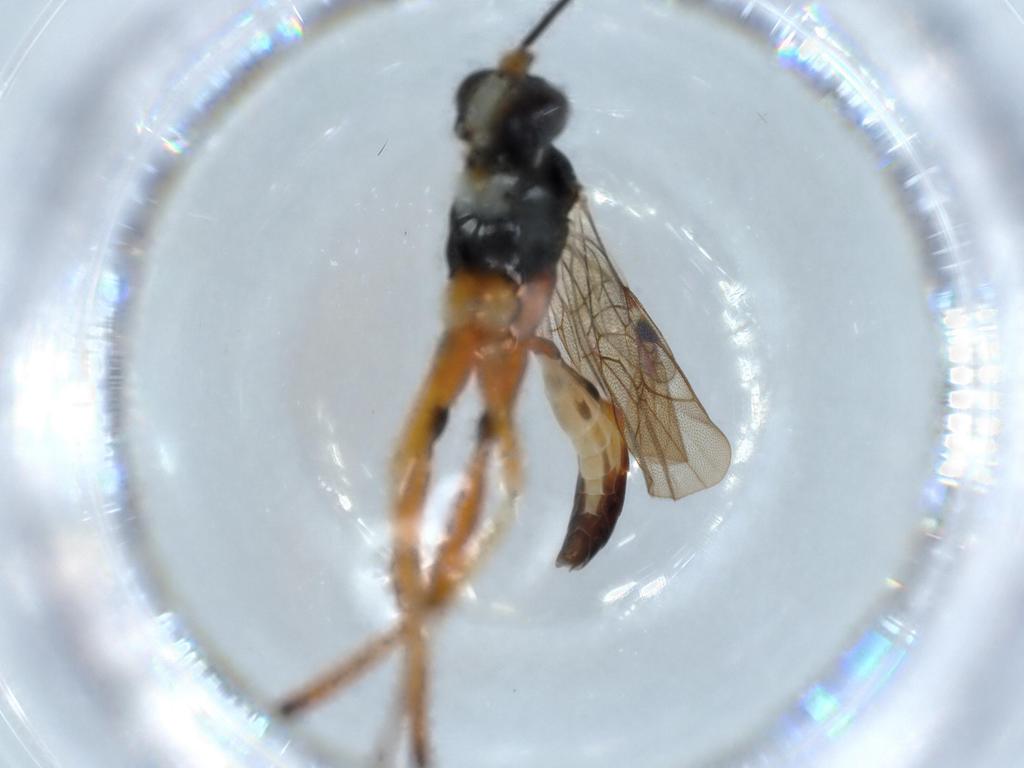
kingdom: Animalia
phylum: Arthropoda
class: Insecta
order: Hymenoptera
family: Ichneumonidae
